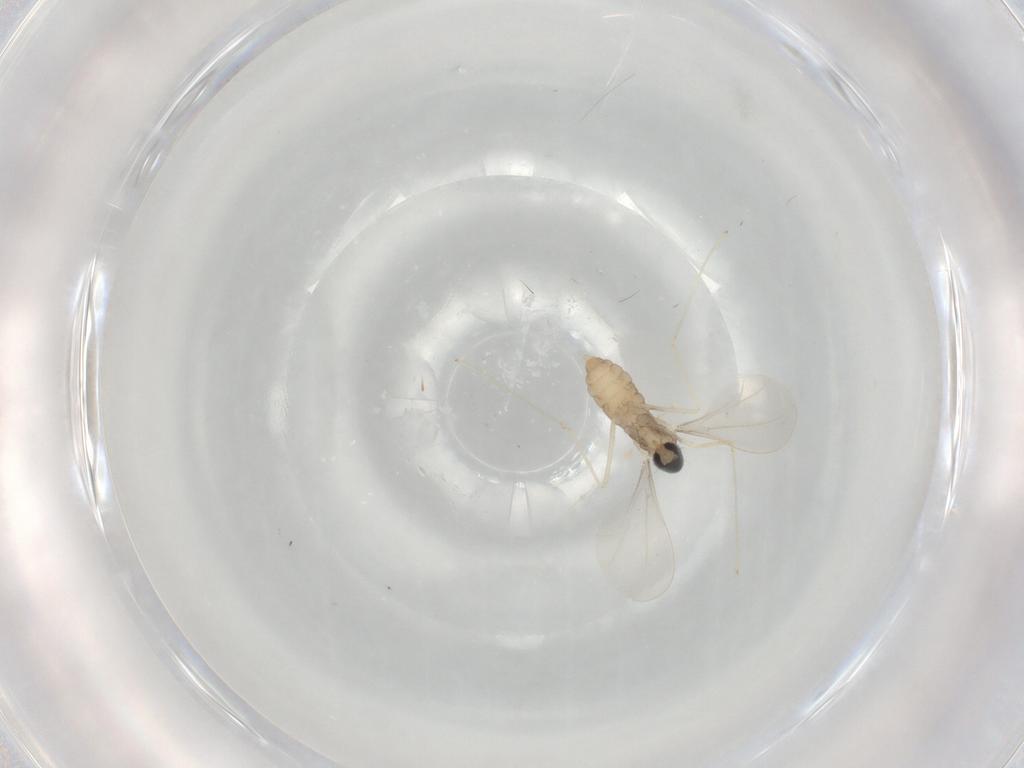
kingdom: Animalia
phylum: Arthropoda
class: Insecta
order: Diptera
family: Cecidomyiidae
